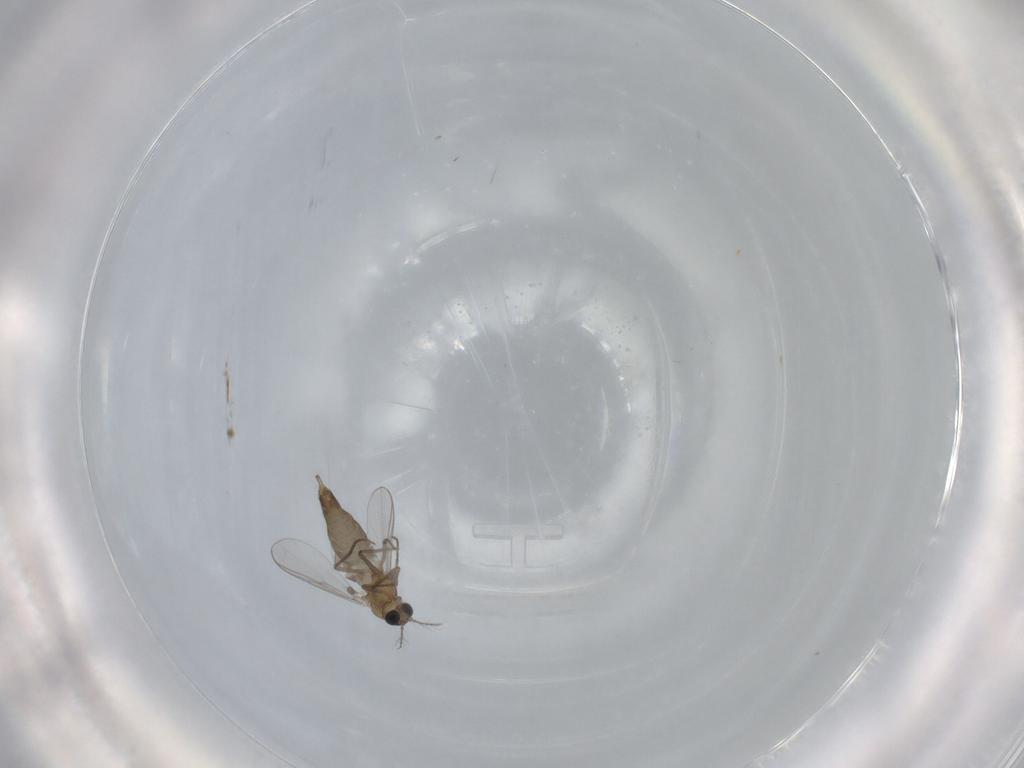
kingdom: Animalia
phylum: Arthropoda
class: Insecta
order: Diptera
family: Chironomidae
